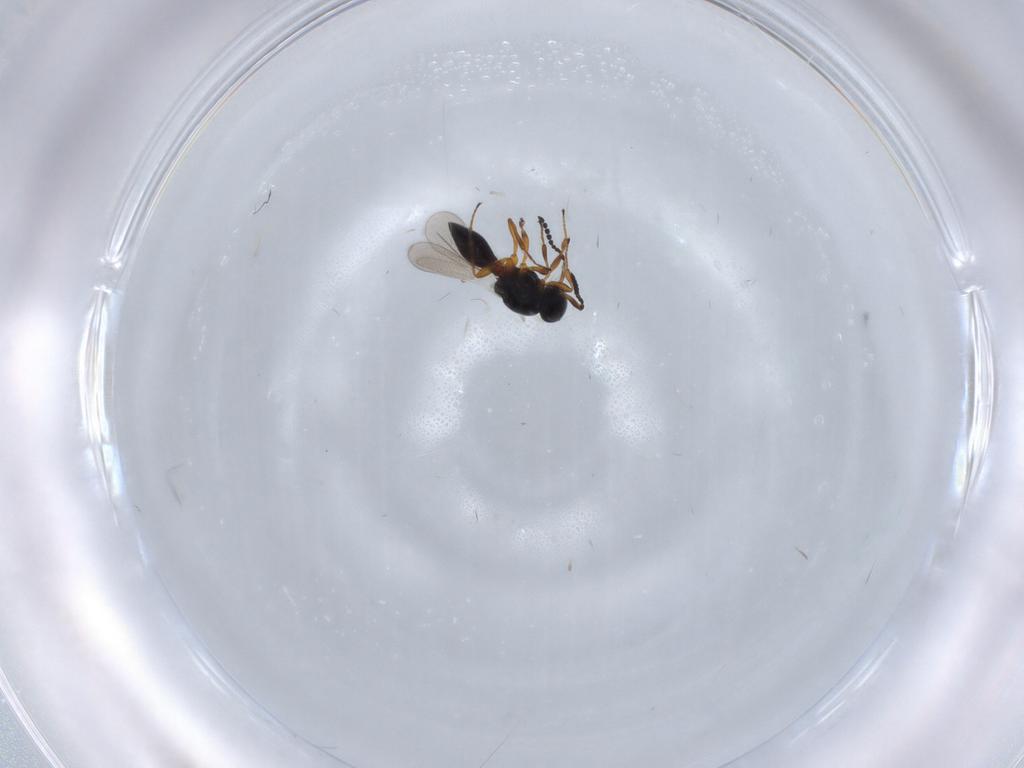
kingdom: Animalia
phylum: Arthropoda
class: Insecta
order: Hymenoptera
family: Platygastridae
